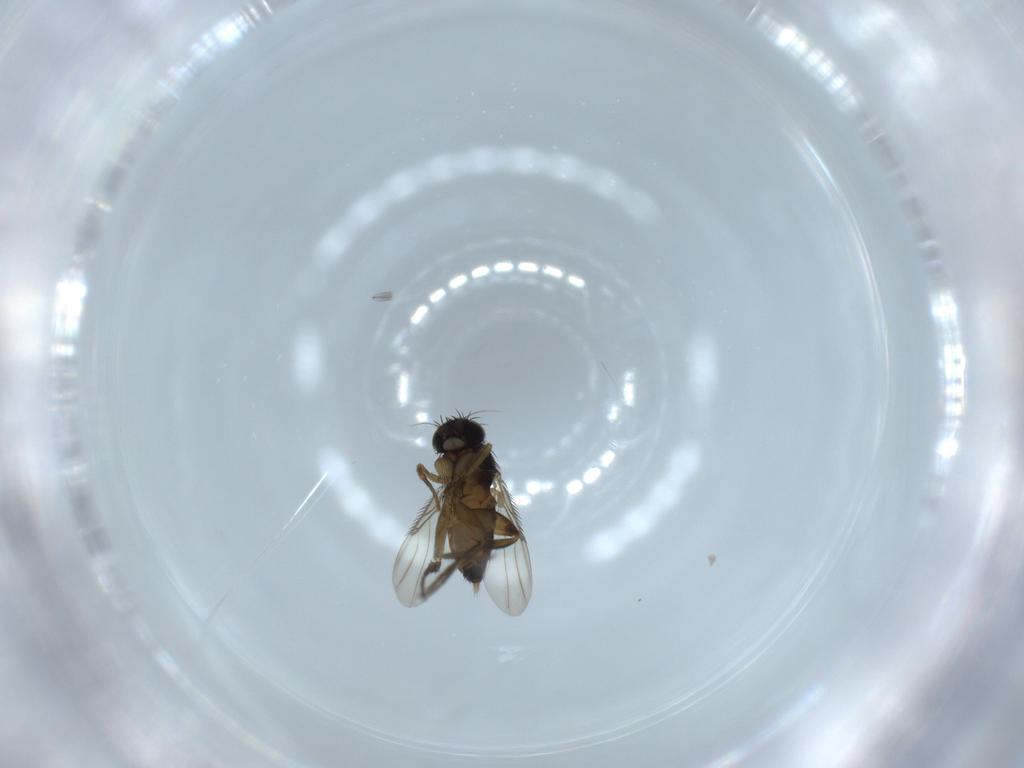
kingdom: Animalia
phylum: Arthropoda
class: Insecta
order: Diptera
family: Phoridae
